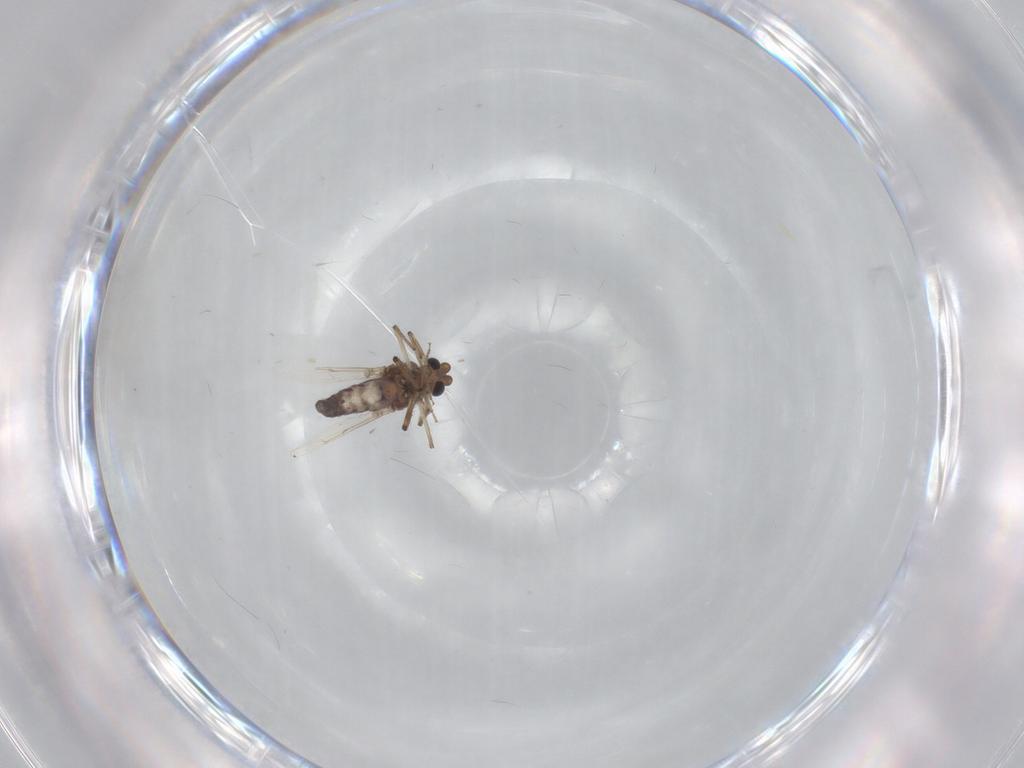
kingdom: Animalia
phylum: Arthropoda
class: Insecta
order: Diptera
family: Ceratopogonidae
